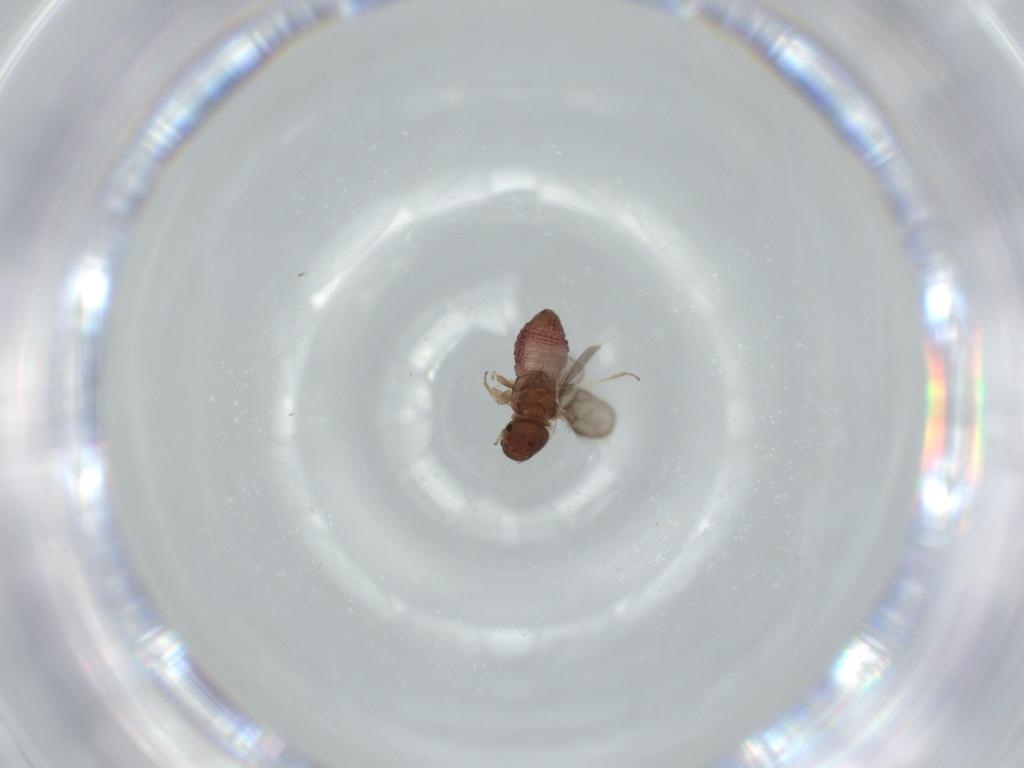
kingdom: Animalia
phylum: Arthropoda
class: Insecta
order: Psocodea
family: Archipsocidae
